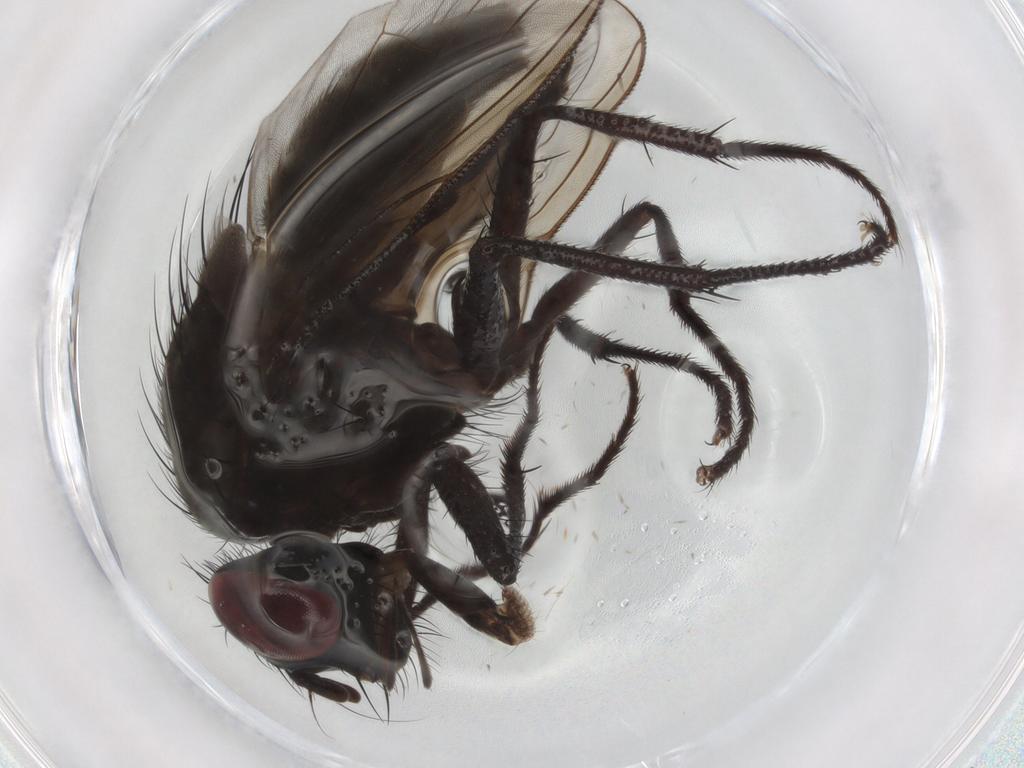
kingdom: Animalia
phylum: Arthropoda
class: Insecta
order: Diptera
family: Muscidae
